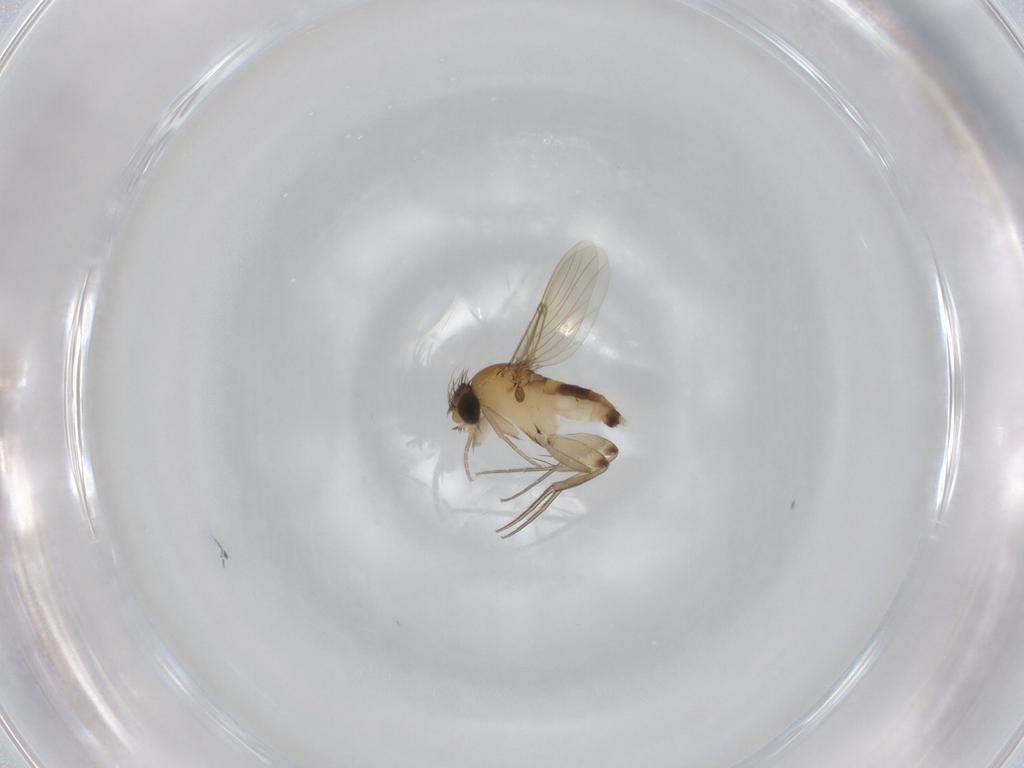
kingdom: Animalia
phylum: Arthropoda
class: Insecta
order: Diptera
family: Phoridae
